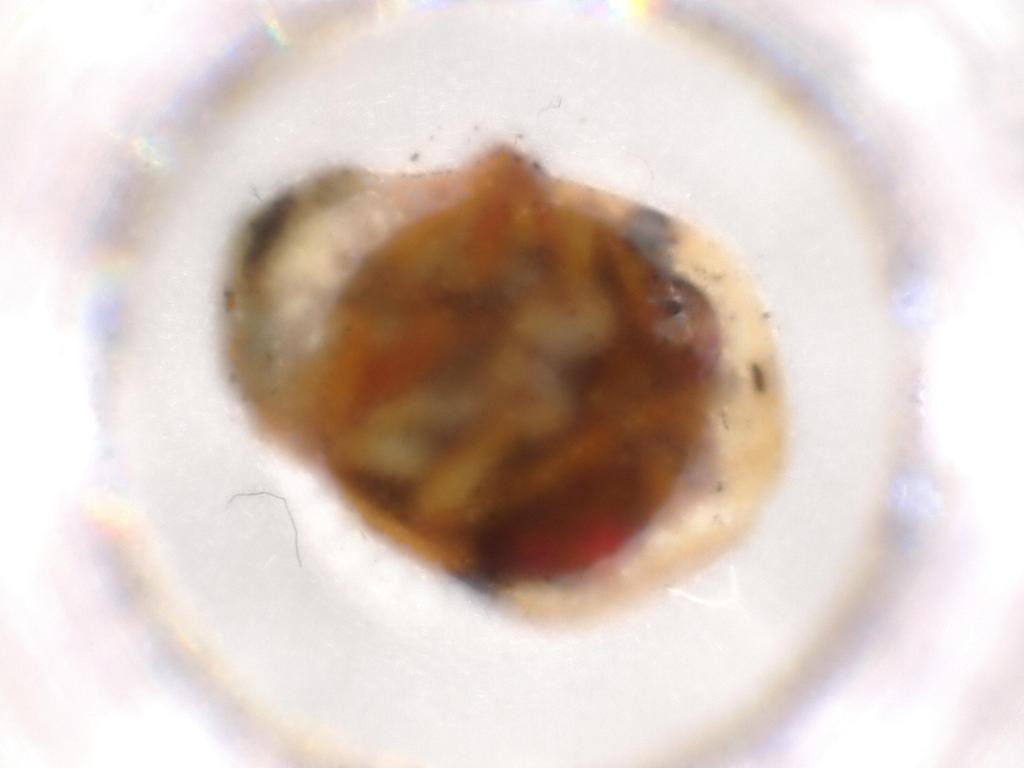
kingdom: Animalia
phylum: Arthropoda
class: Insecta
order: Hemiptera
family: Clastopteridae
